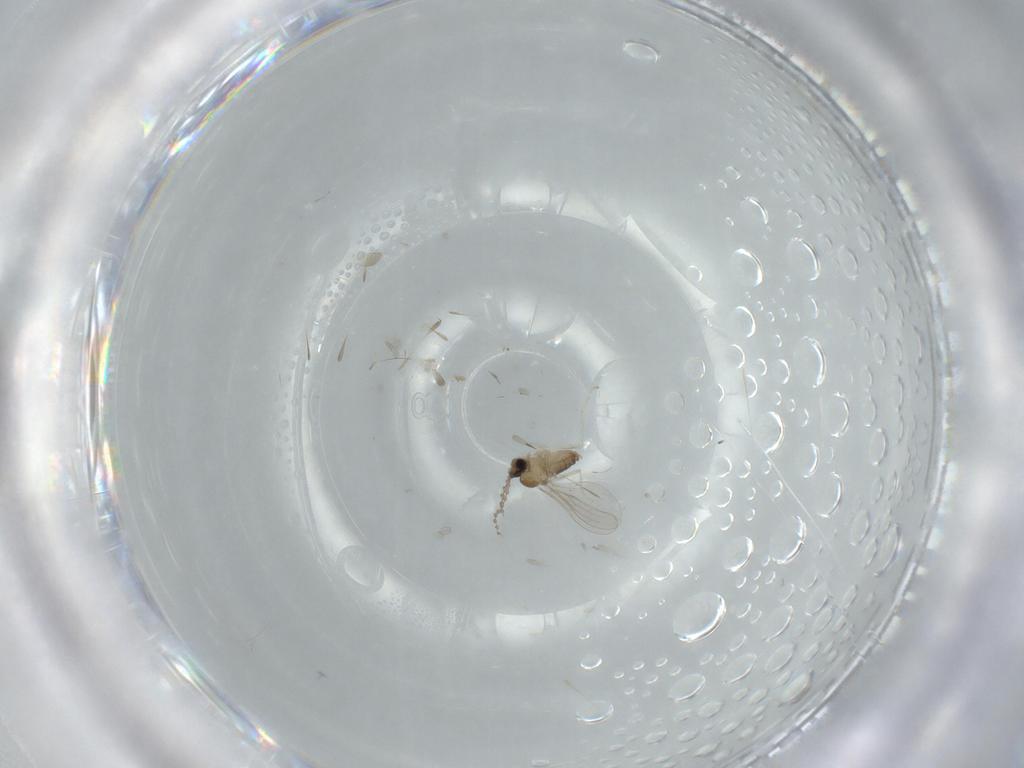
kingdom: Animalia
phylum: Arthropoda
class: Insecta
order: Diptera
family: Cecidomyiidae
